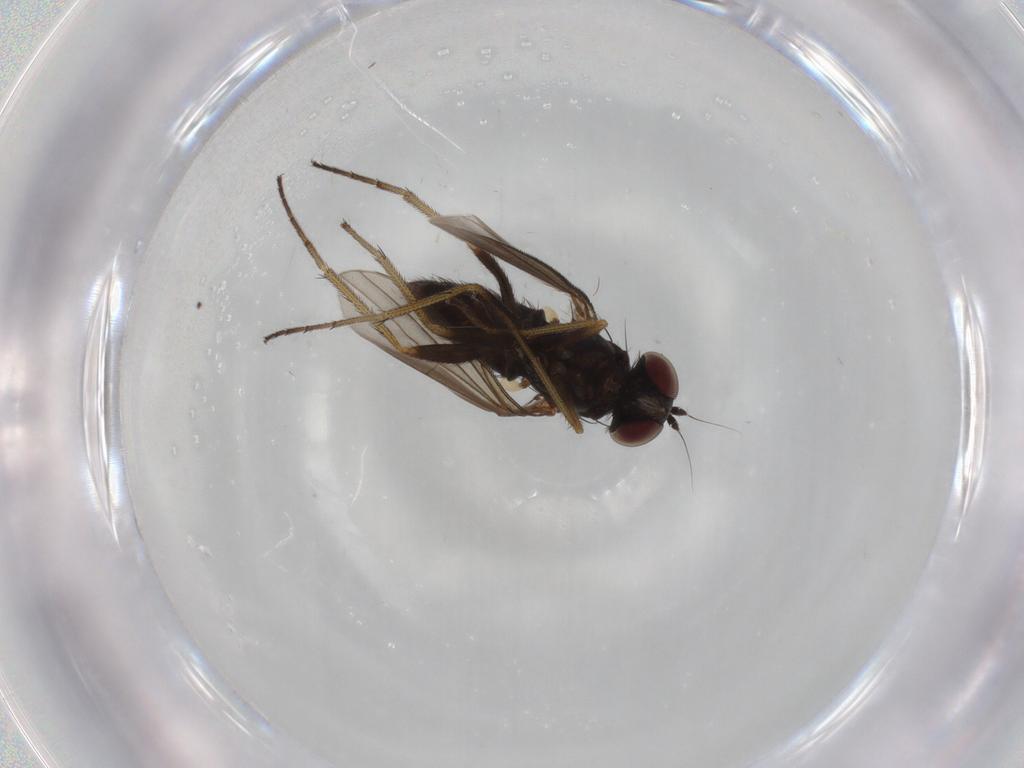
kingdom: Animalia
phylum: Arthropoda
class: Insecta
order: Diptera
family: Dolichopodidae
